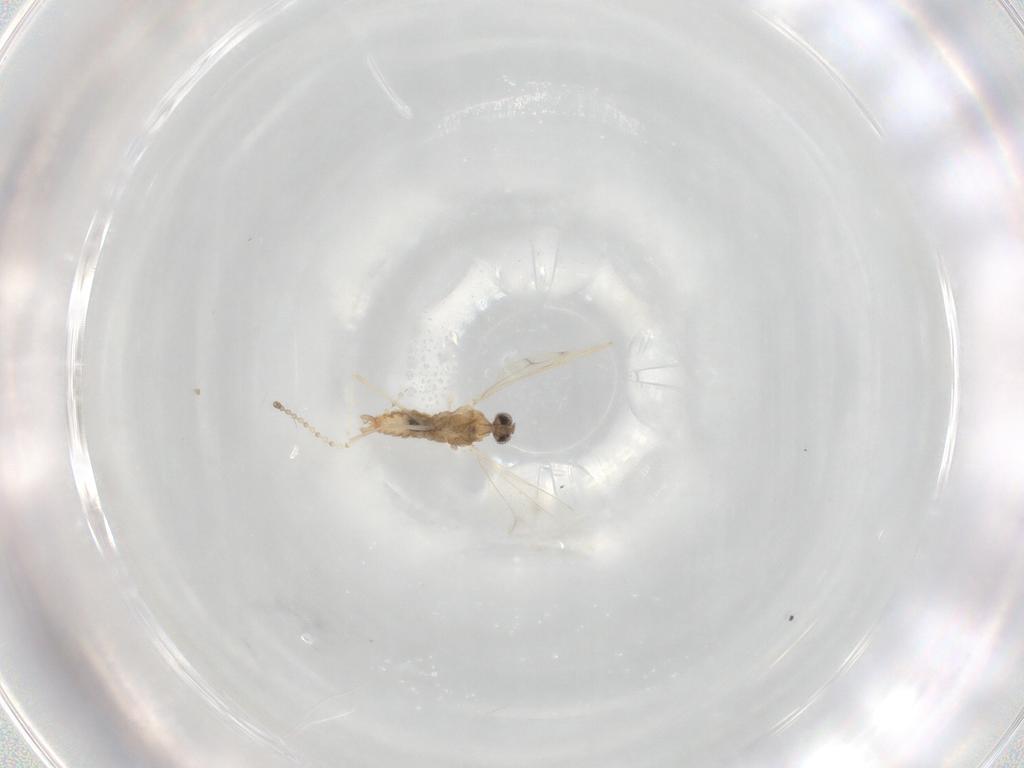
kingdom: Animalia
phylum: Arthropoda
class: Insecta
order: Diptera
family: Cecidomyiidae
